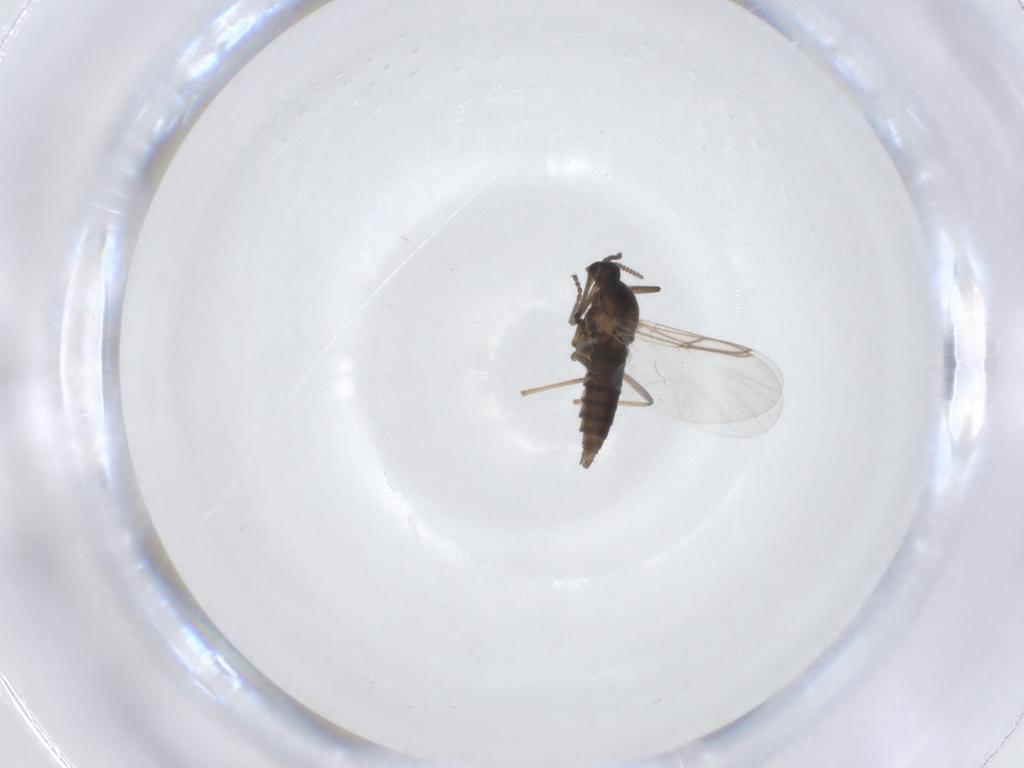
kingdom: Animalia
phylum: Arthropoda
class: Insecta
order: Diptera
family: Cecidomyiidae
